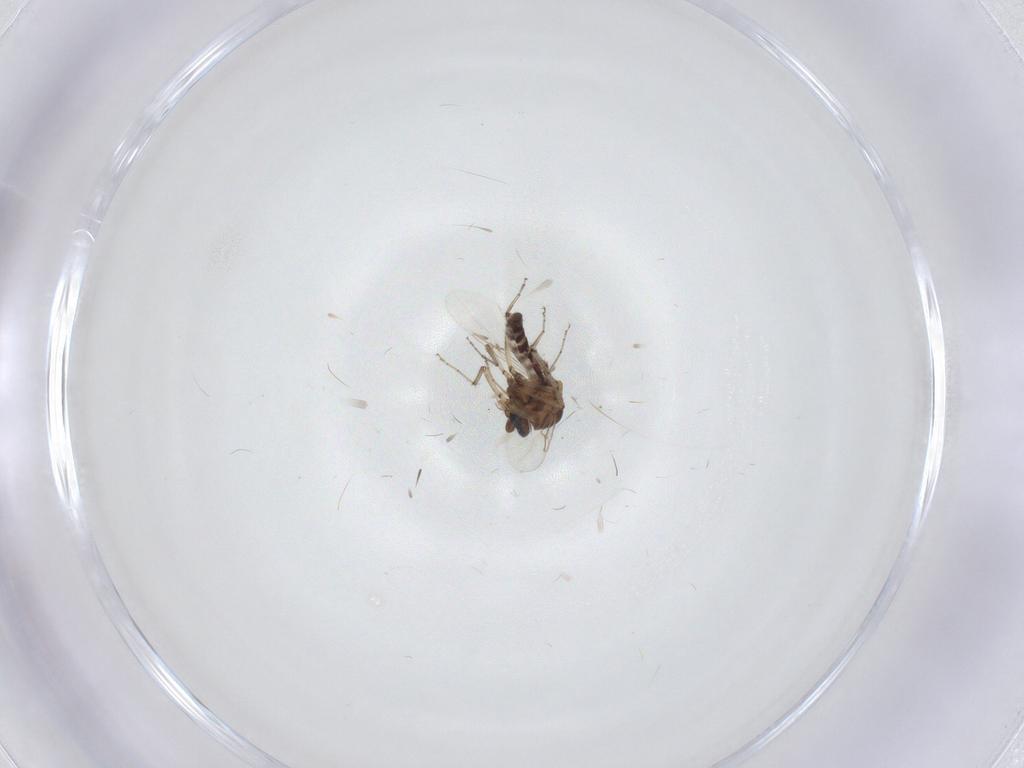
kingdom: Animalia
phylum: Arthropoda
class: Insecta
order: Diptera
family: Ceratopogonidae
